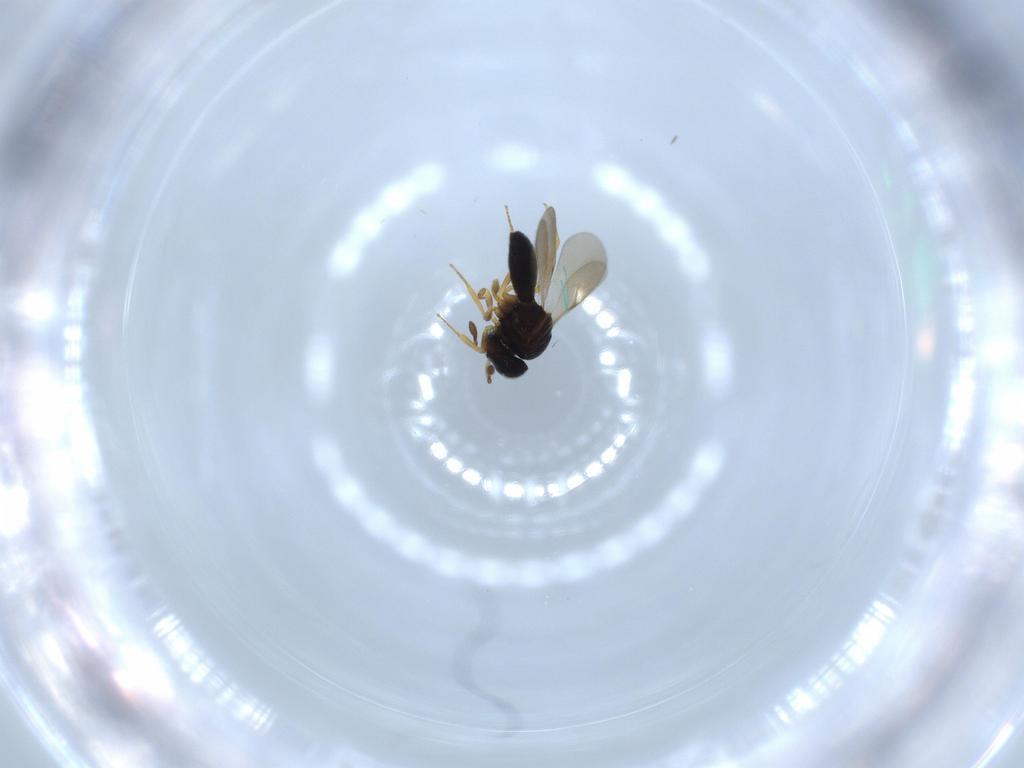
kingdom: Animalia
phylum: Arthropoda
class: Insecta
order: Hymenoptera
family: Scelionidae
